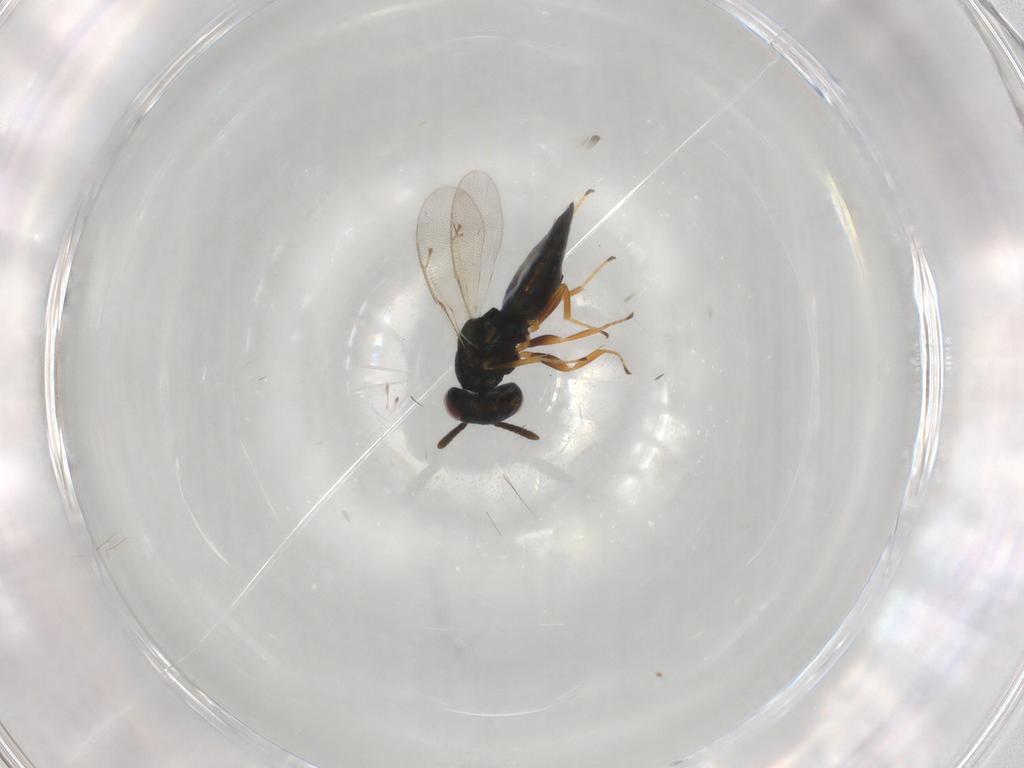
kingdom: Animalia
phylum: Arthropoda
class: Insecta
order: Hymenoptera
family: Pteromalidae
